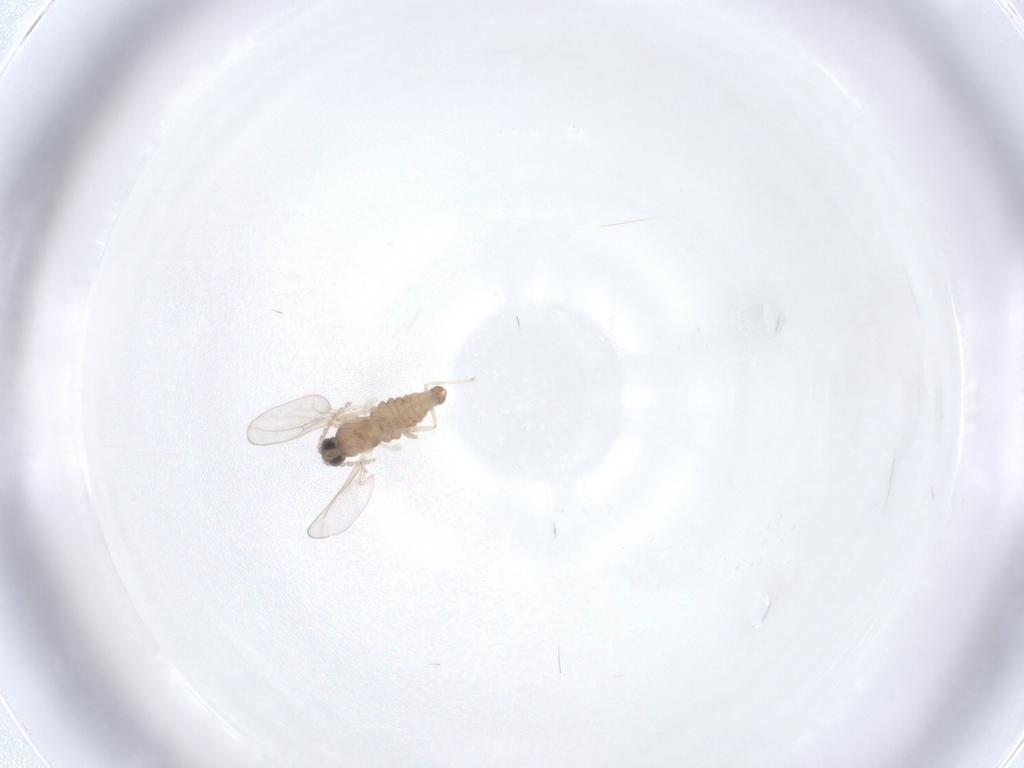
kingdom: Animalia
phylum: Arthropoda
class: Insecta
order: Diptera
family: Cecidomyiidae
